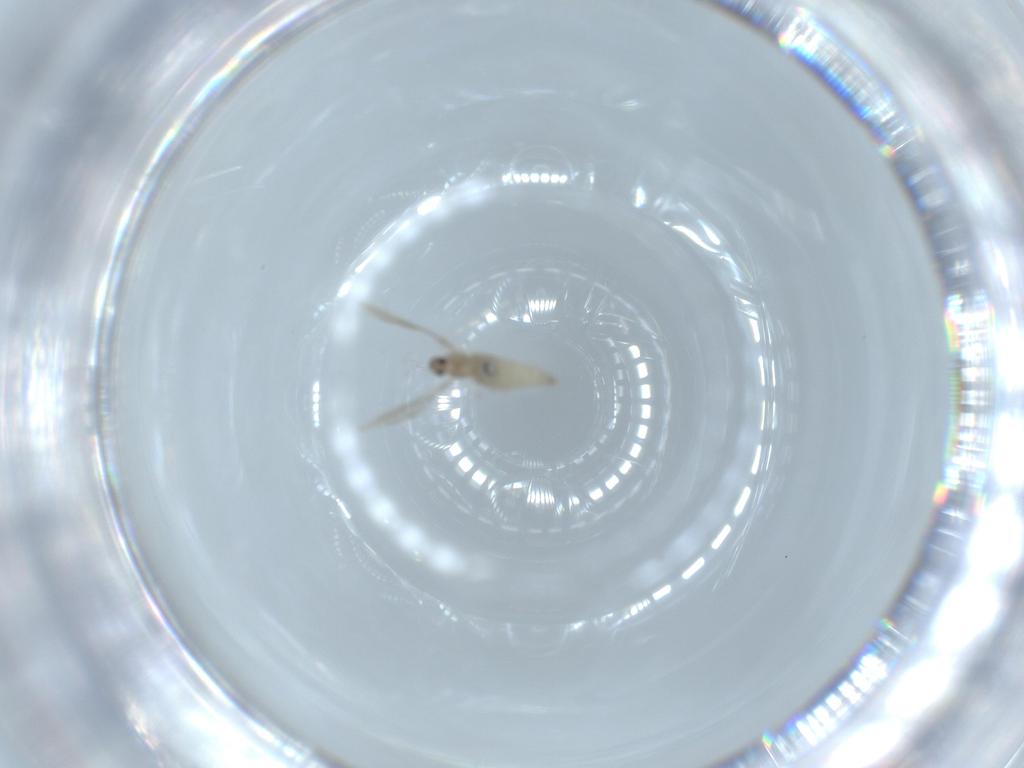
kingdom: Animalia
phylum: Arthropoda
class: Insecta
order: Diptera
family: Cecidomyiidae
